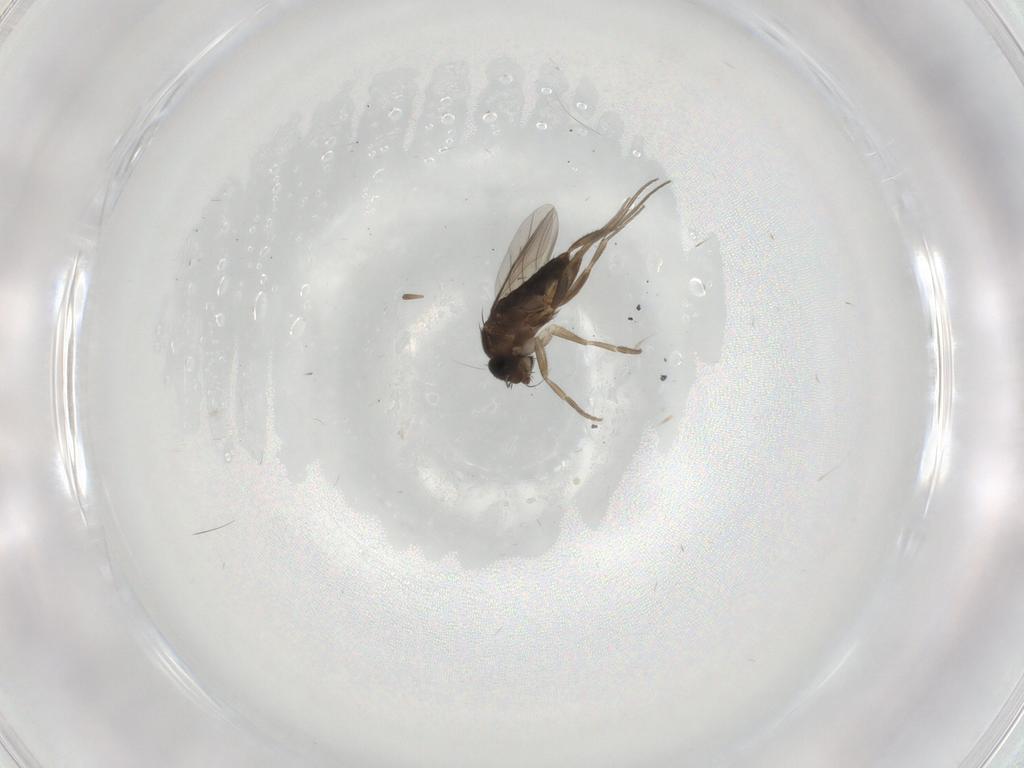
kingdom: Animalia
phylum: Arthropoda
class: Insecta
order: Diptera
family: Phoridae
